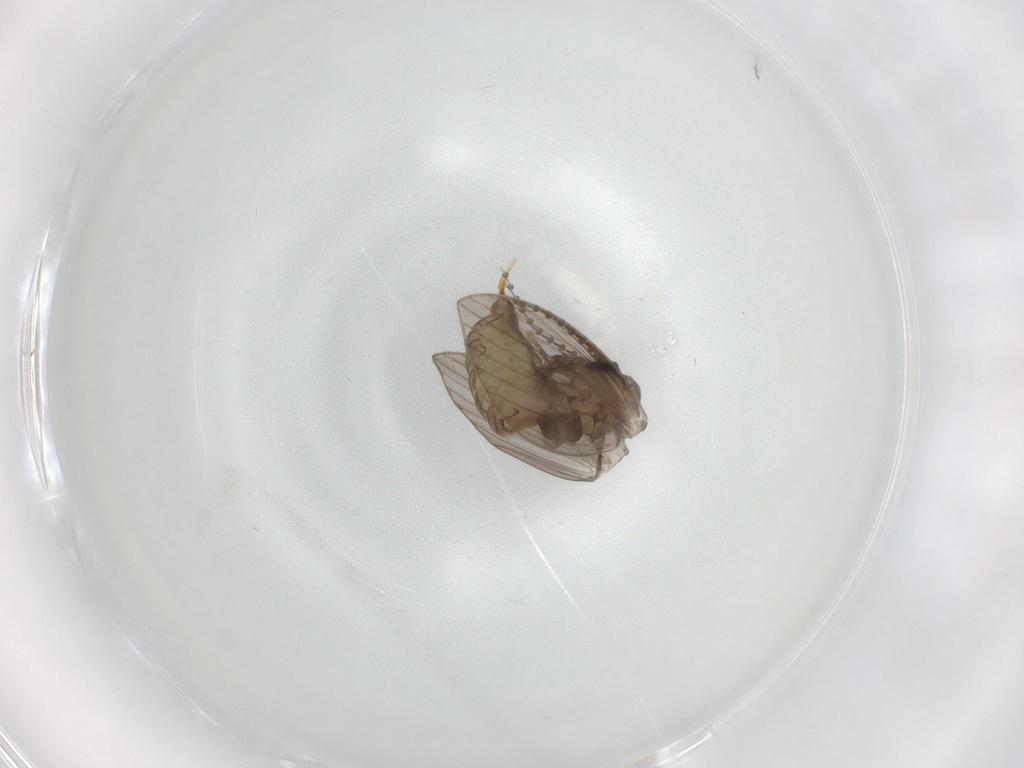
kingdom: Animalia
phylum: Arthropoda
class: Insecta
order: Diptera
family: Psychodidae
